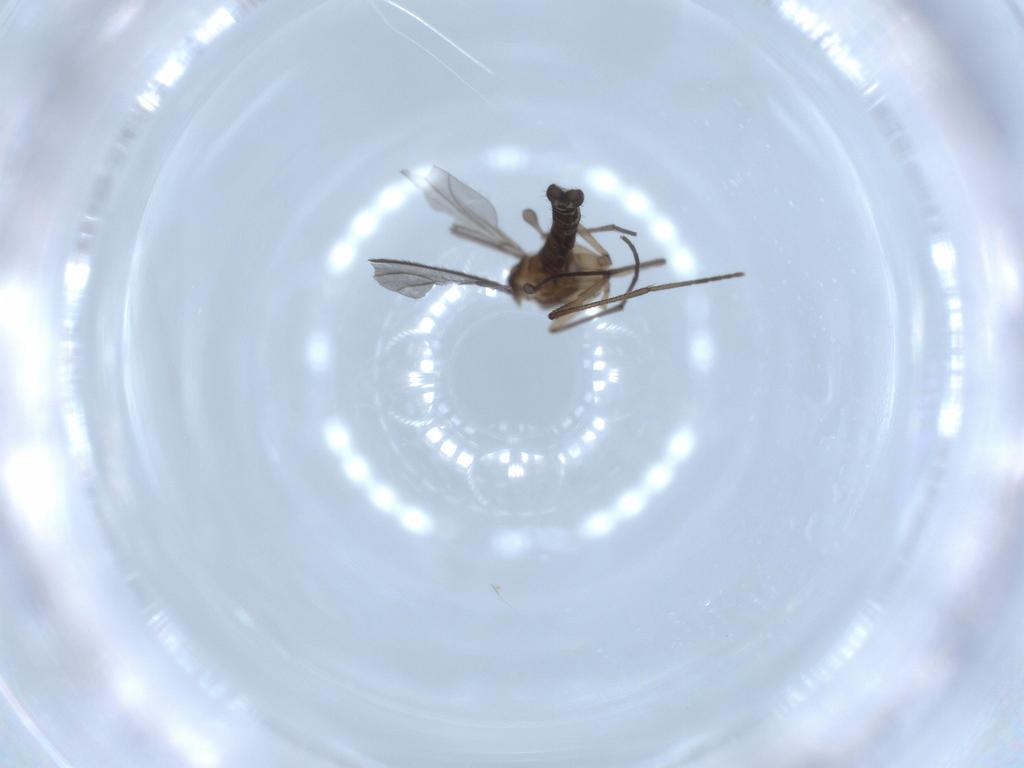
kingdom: Animalia
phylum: Arthropoda
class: Insecta
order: Diptera
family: Sciaridae
